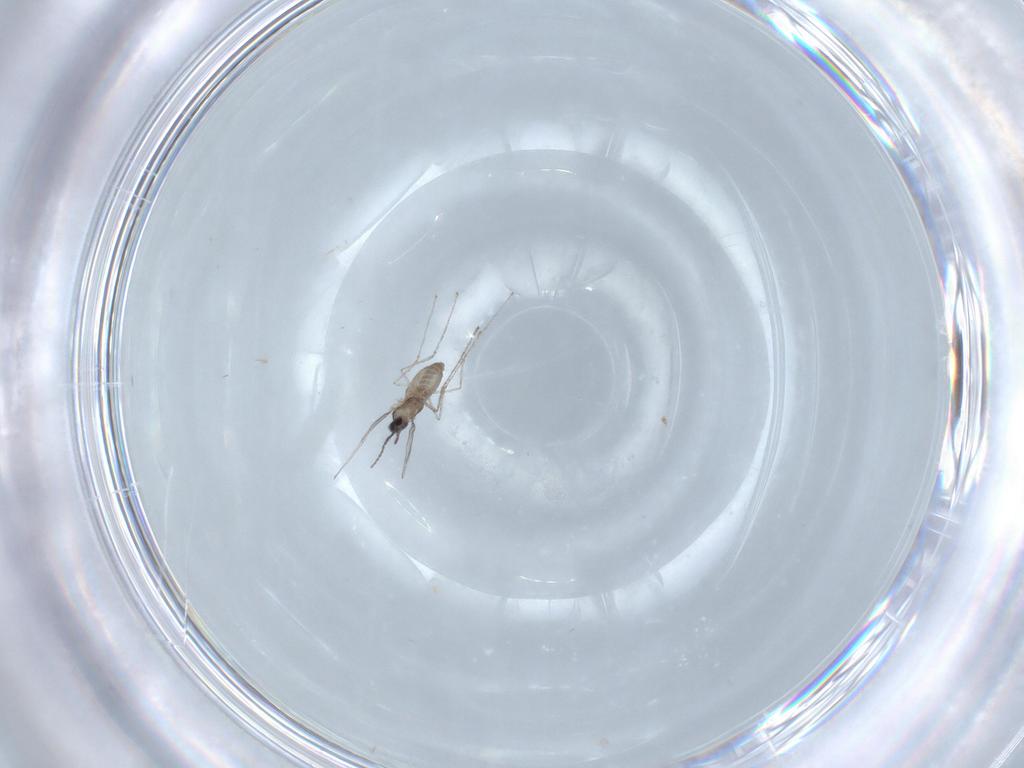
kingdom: Animalia
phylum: Arthropoda
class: Insecta
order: Diptera
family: Cecidomyiidae
